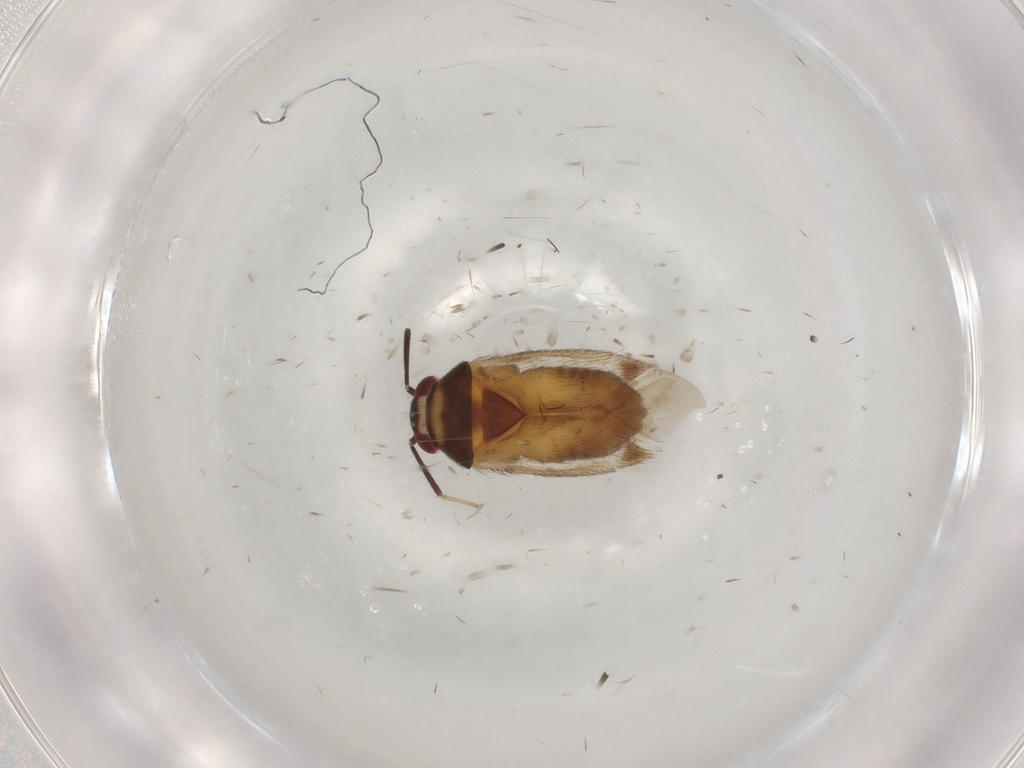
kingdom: Animalia
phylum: Arthropoda
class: Insecta
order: Hemiptera
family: Miridae
